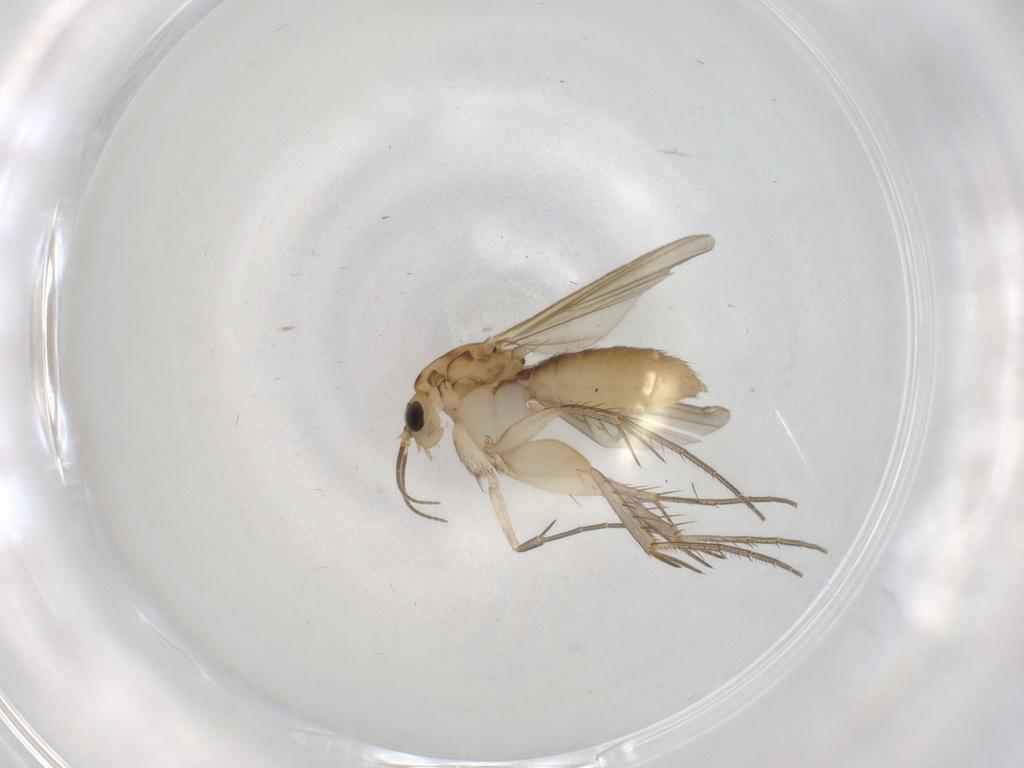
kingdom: Animalia
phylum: Arthropoda
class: Insecta
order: Diptera
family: Mycetophilidae
